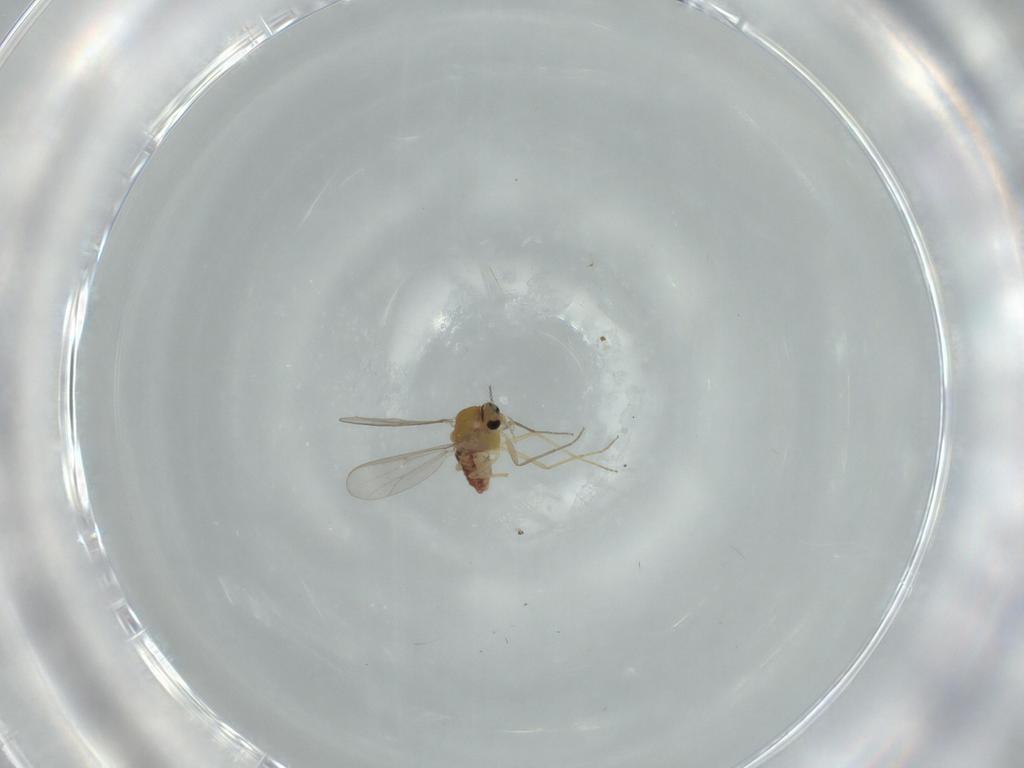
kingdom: Animalia
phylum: Arthropoda
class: Insecta
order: Diptera
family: Chironomidae
